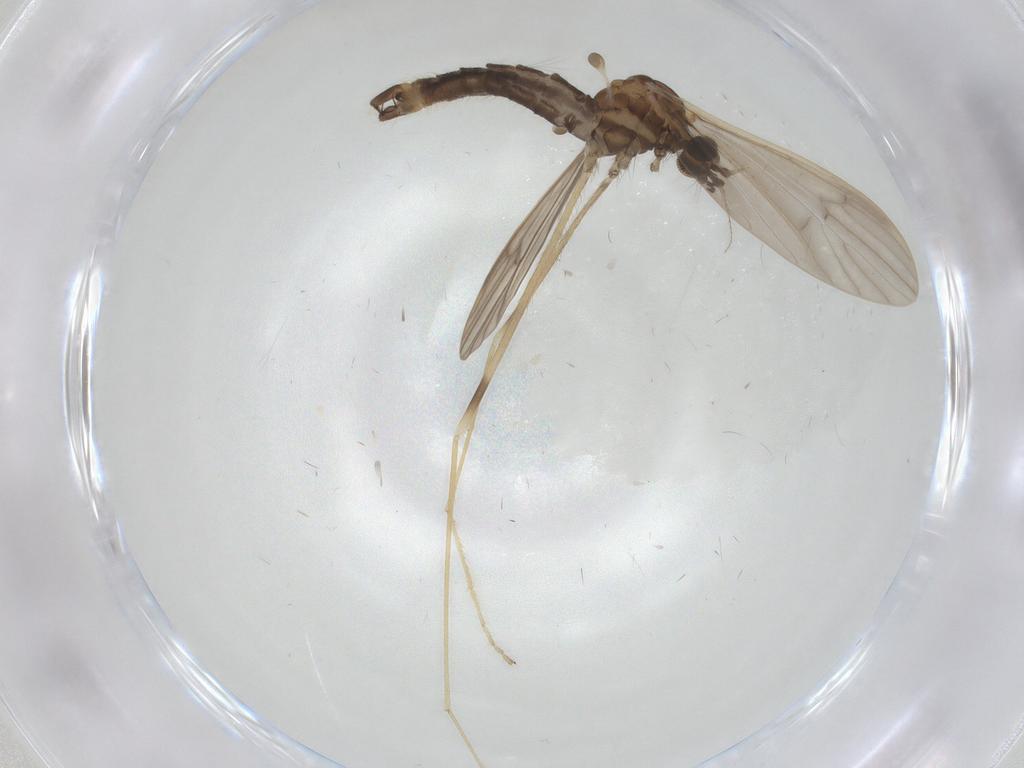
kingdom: Animalia
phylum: Arthropoda
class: Insecta
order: Diptera
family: Limoniidae
